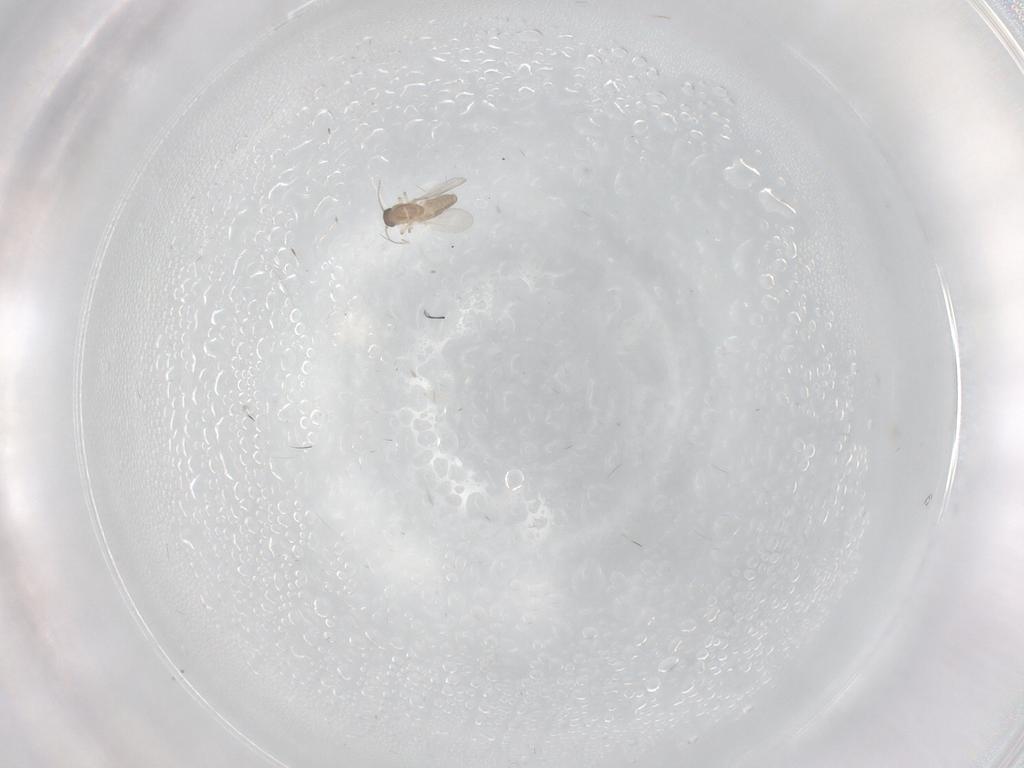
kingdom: Animalia
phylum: Arthropoda
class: Insecta
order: Diptera
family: Ceratopogonidae
